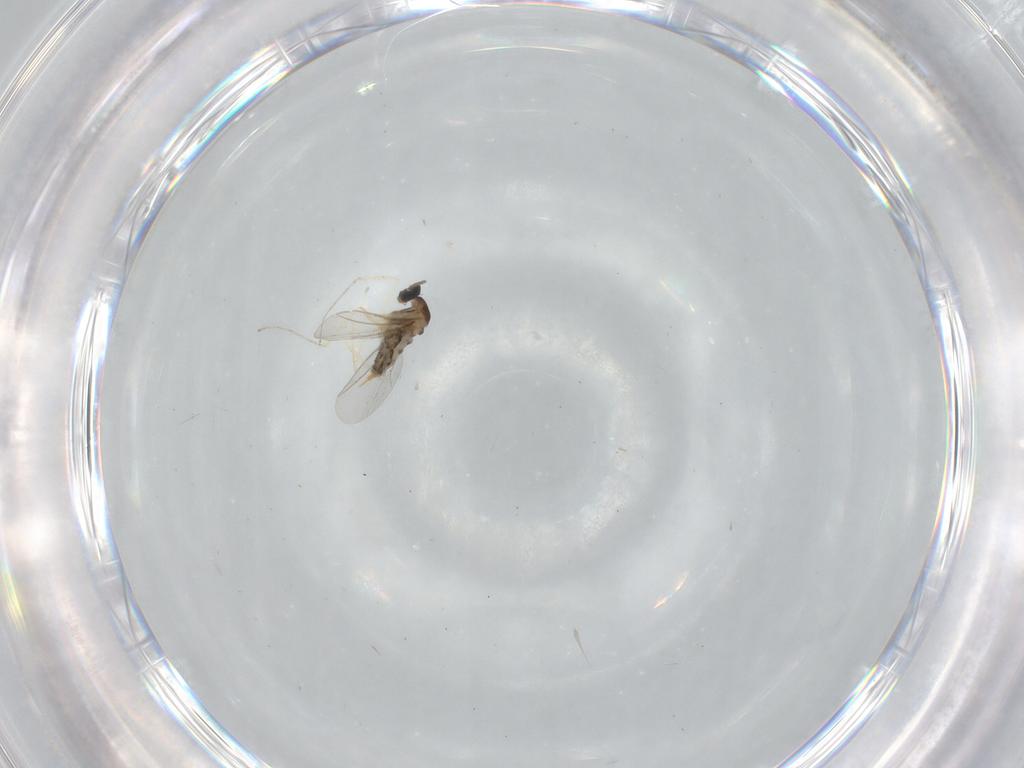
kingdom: Animalia
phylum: Arthropoda
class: Insecta
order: Diptera
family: Cecidomyiidae
